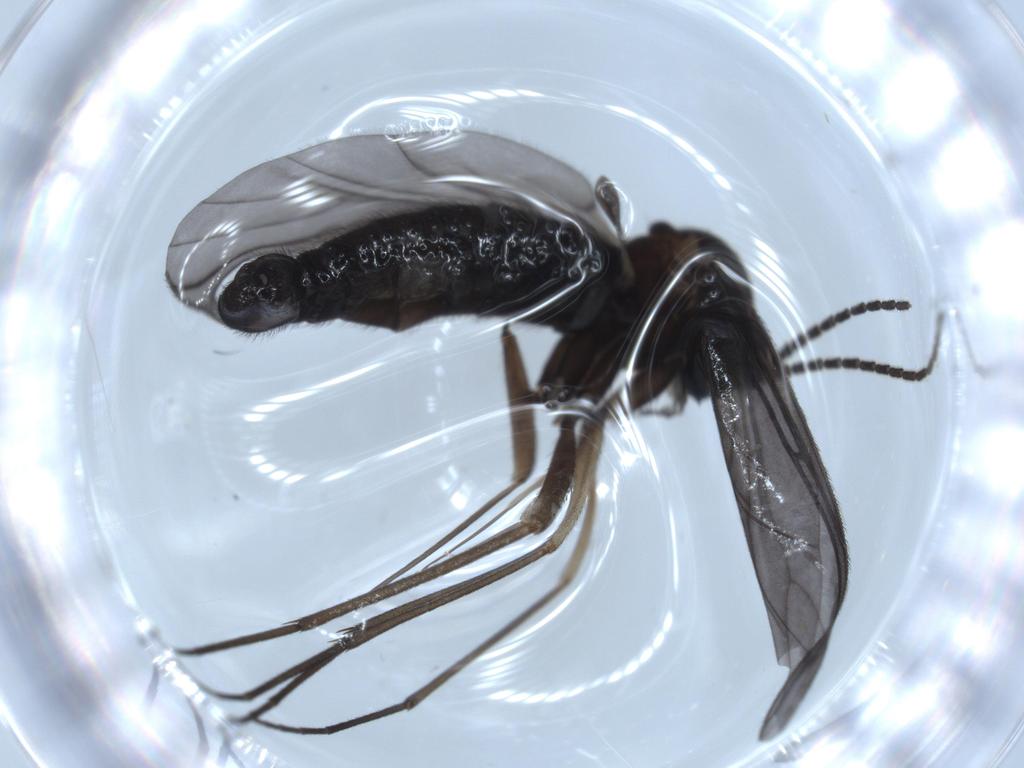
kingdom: Animalia
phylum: Arthropoda
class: Insecta
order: Diptera
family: Sciaridae
